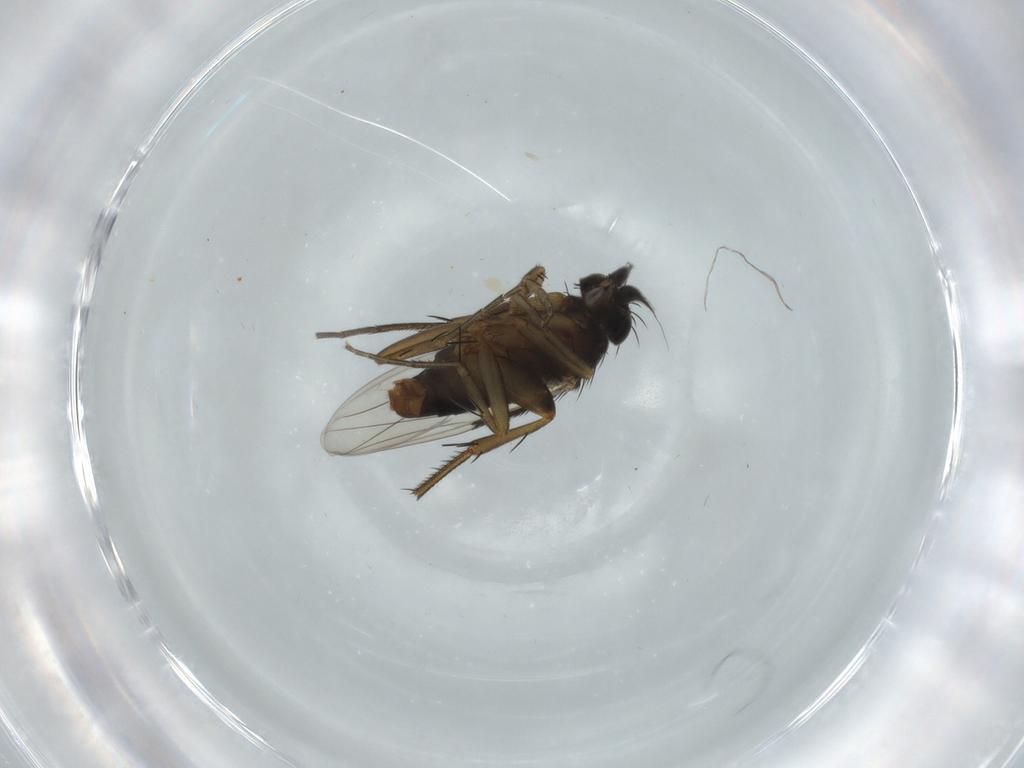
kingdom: Animalia
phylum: Arthropoda
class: Insecta
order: Diptera
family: Phoridae
